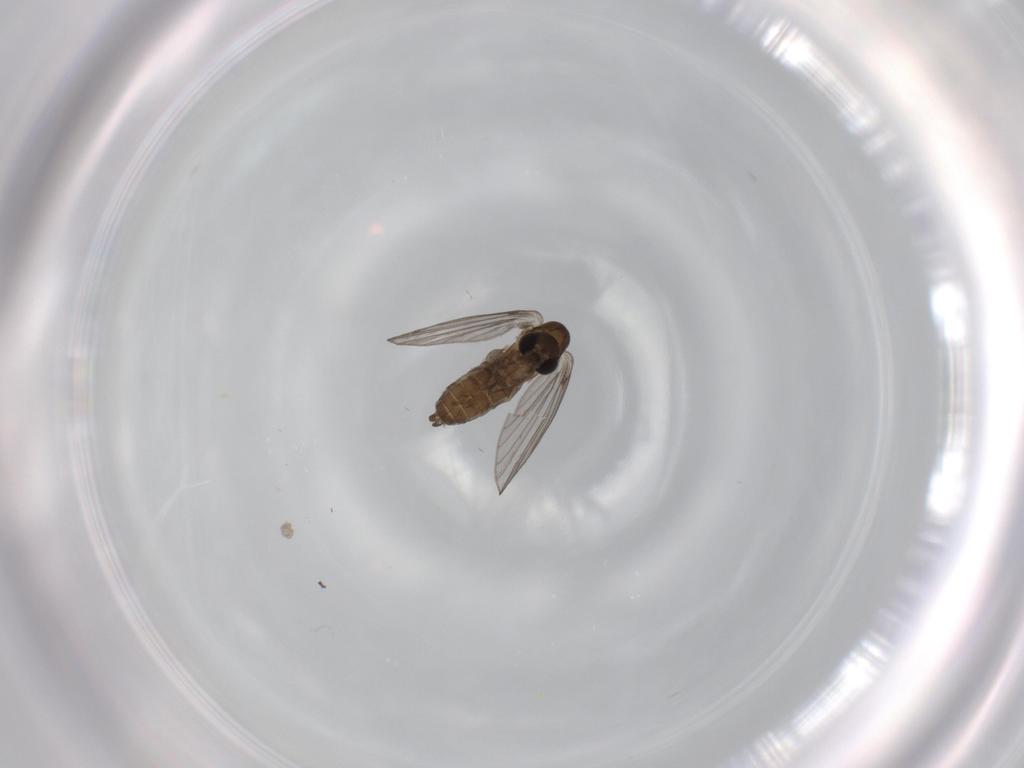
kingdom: Animalia
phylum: Arthropoda
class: Insecta
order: Diptera
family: Psychodidae
